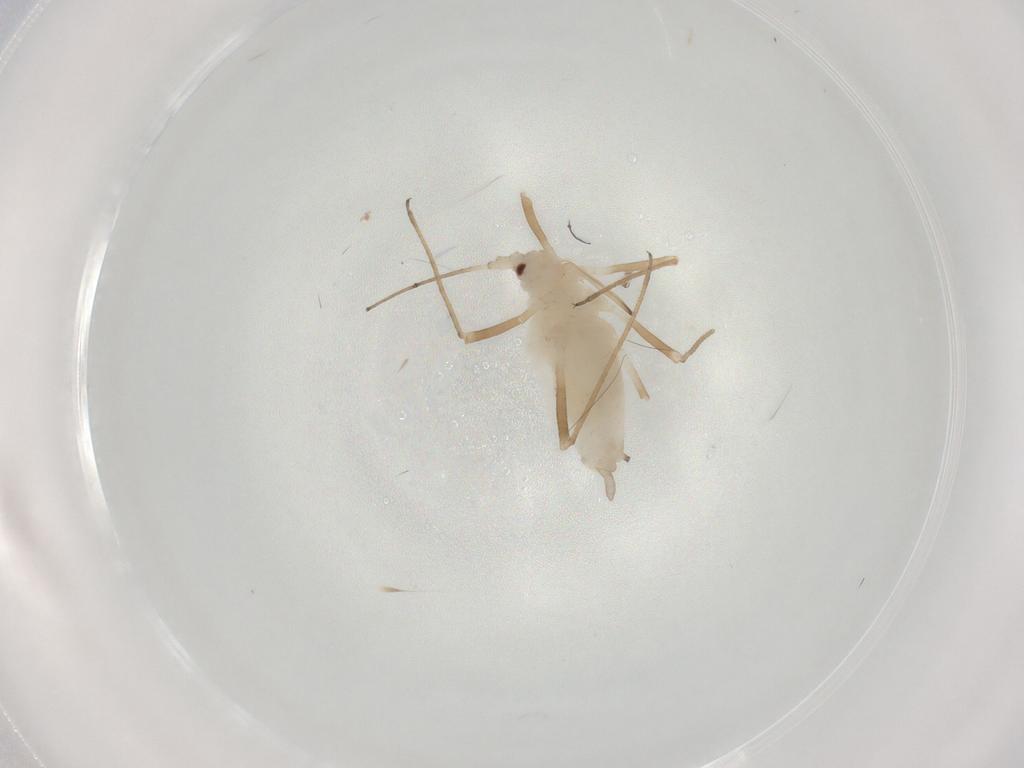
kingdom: Animalia
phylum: Arthropoda
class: Insecta
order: Hemiptera
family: Aphididae
